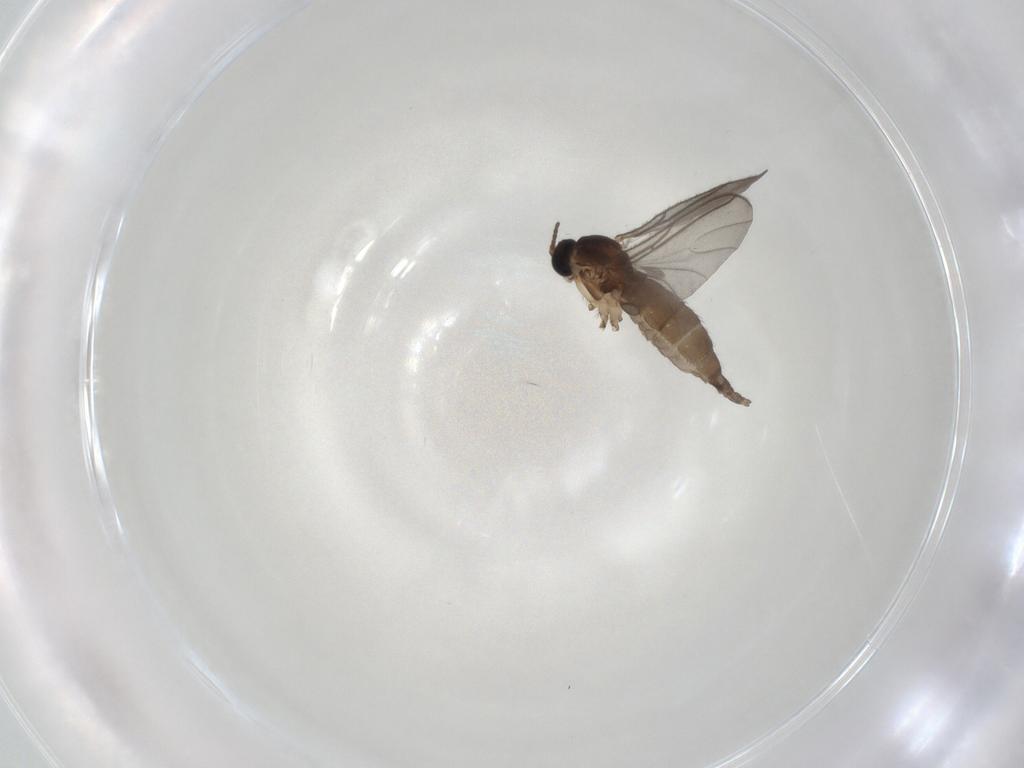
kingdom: Animalia
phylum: Arthropoda
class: Insecta
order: Diptera
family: Sciaridae
